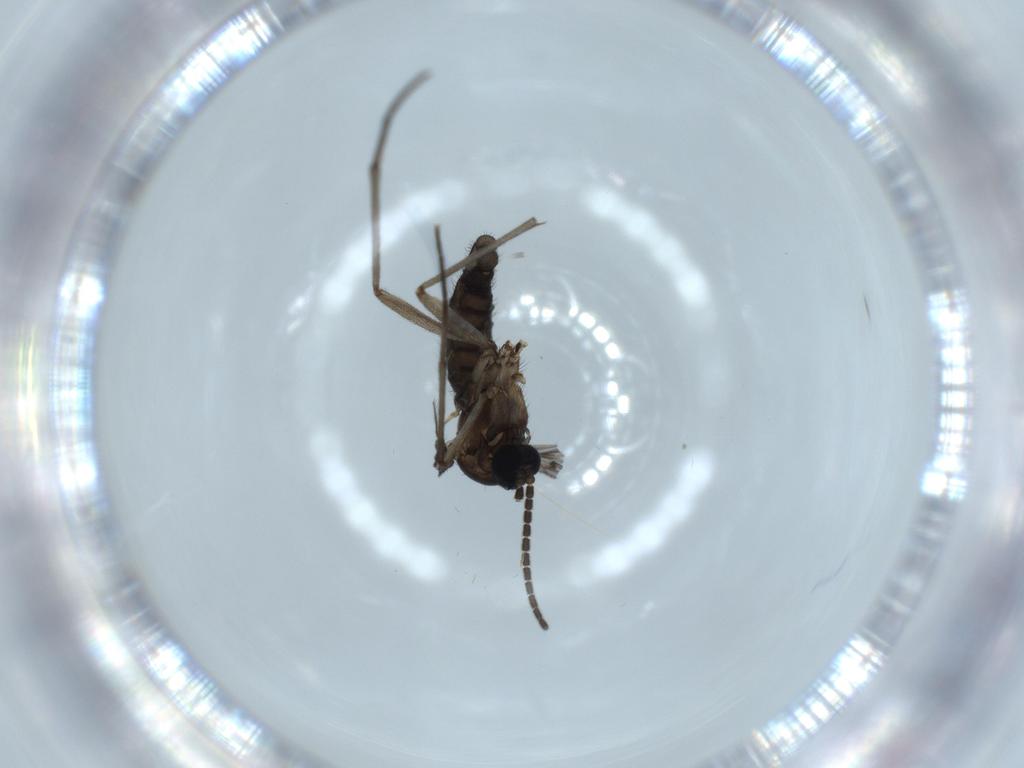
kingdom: Animalia
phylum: Arthropoda
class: Insecta
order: Diptera
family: Sciaridae
